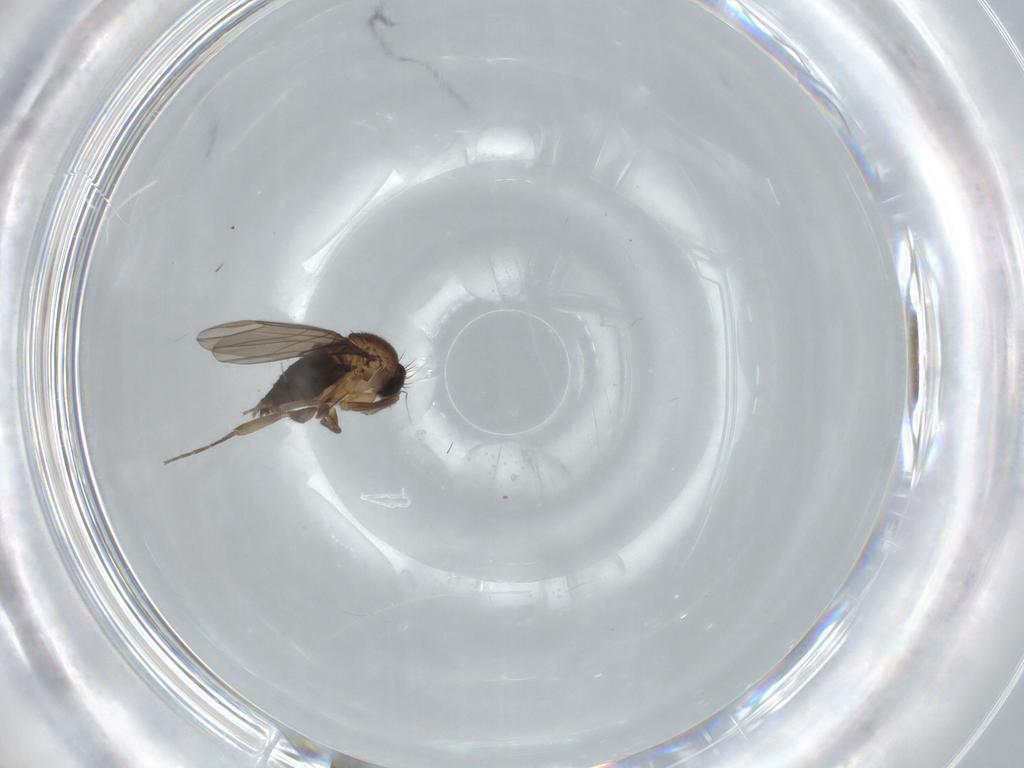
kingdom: Animalia
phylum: Arthropoda
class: Insecta
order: Diptera
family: Phoridae
